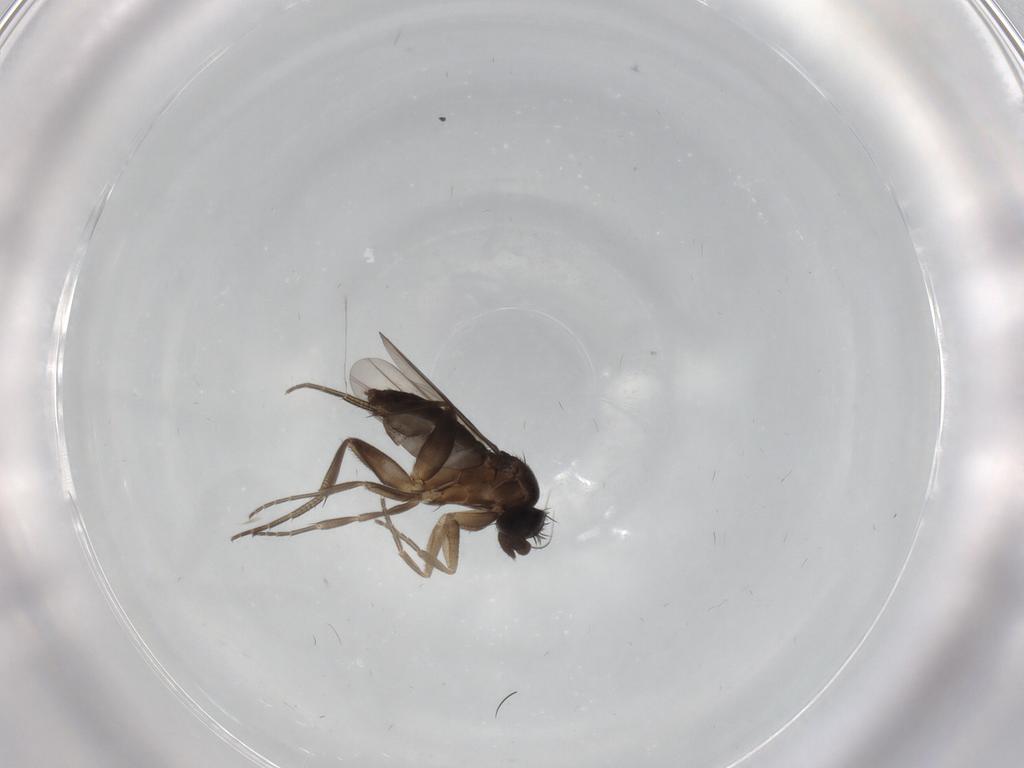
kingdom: Animalia
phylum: Arthropoda
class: Insecta
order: Diptera
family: Phoridae
